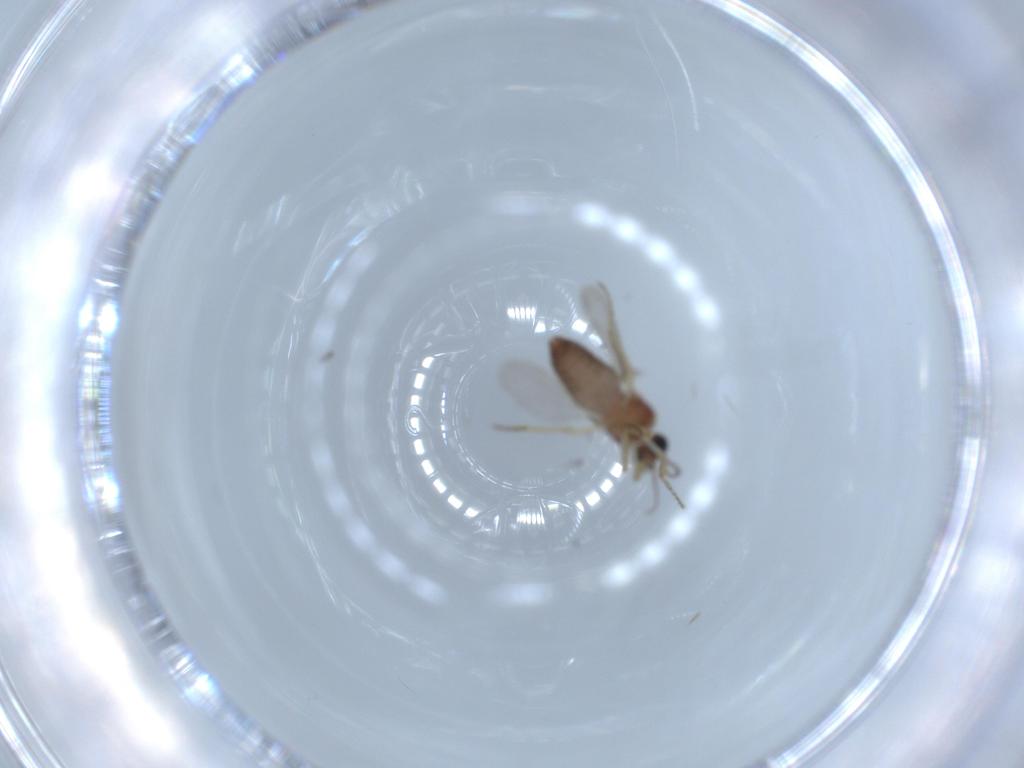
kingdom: Animalia
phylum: Arthropoda
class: Insecta
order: Diptera
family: Ceratopogonidae
